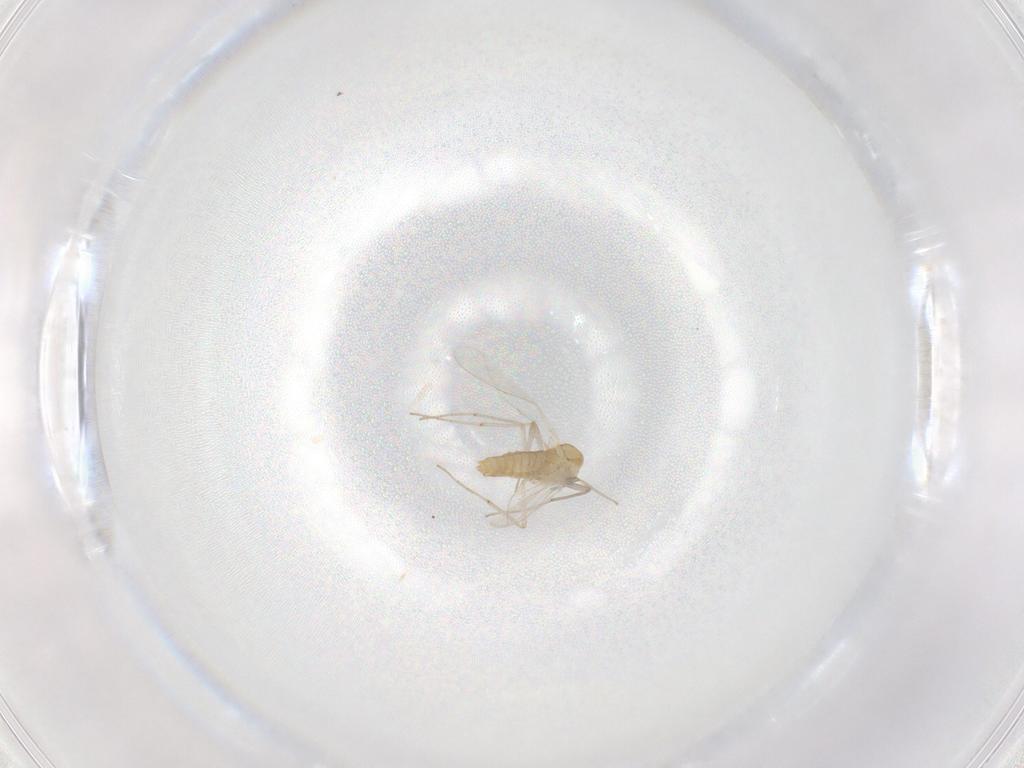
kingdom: Animalia
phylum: Arthropoda
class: Insecta
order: Diptera
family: Chironomidae
